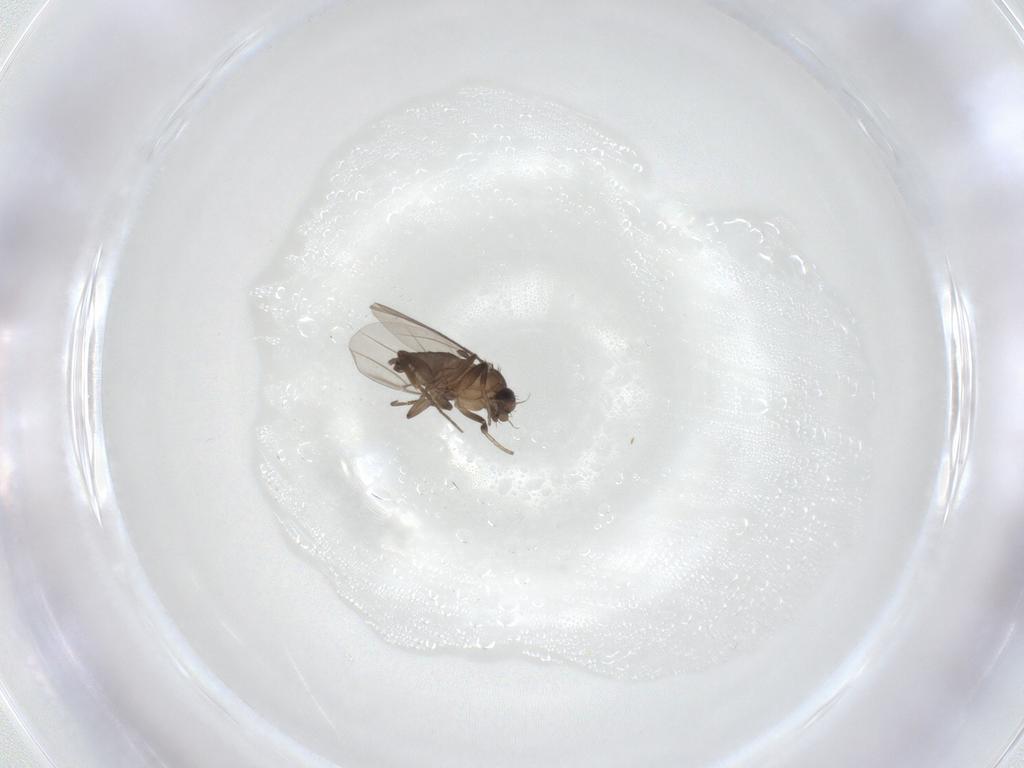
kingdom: Animalia
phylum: Arthropoda
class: Insecta
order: Diptera
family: Phoridae
